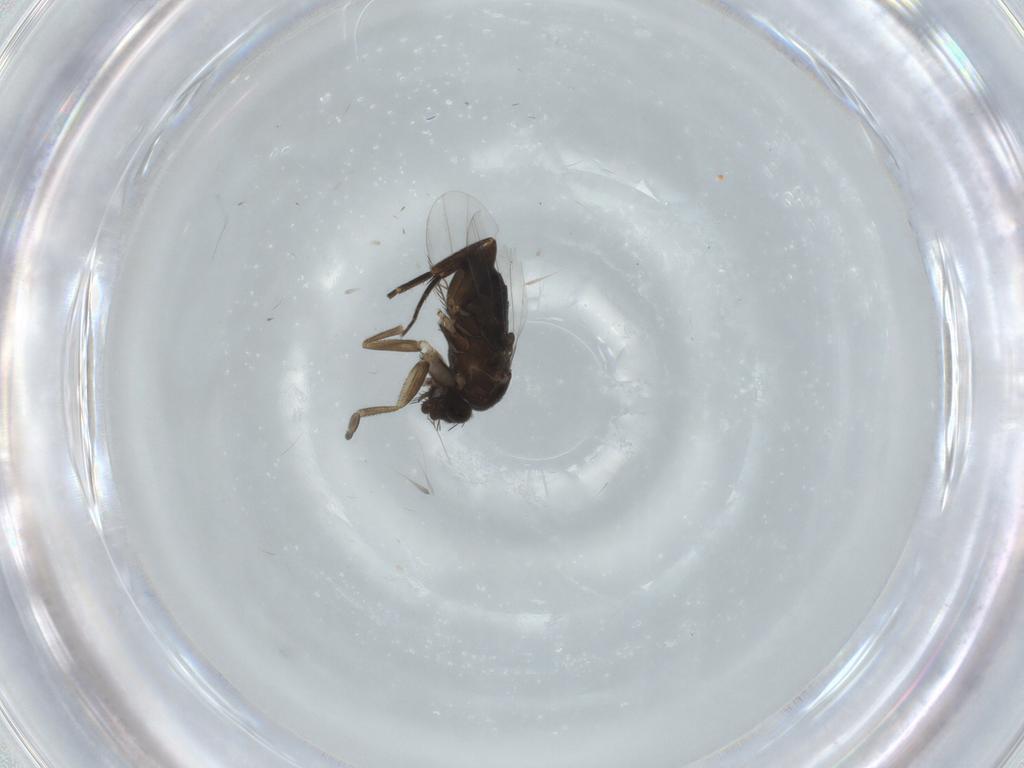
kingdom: Animalia
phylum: Arthropoda
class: Insecta
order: Diptera
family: Phoridae
